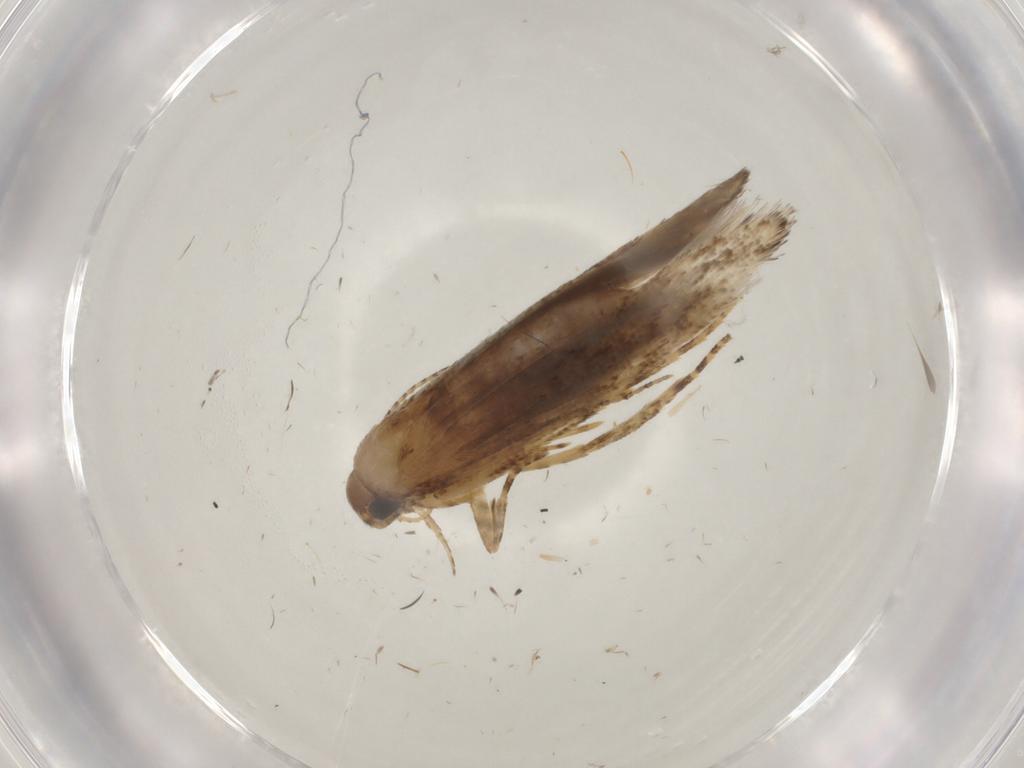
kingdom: Animalia
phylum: Arthropoda
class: Insecta
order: Lepidoptera
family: Gelechiidae
